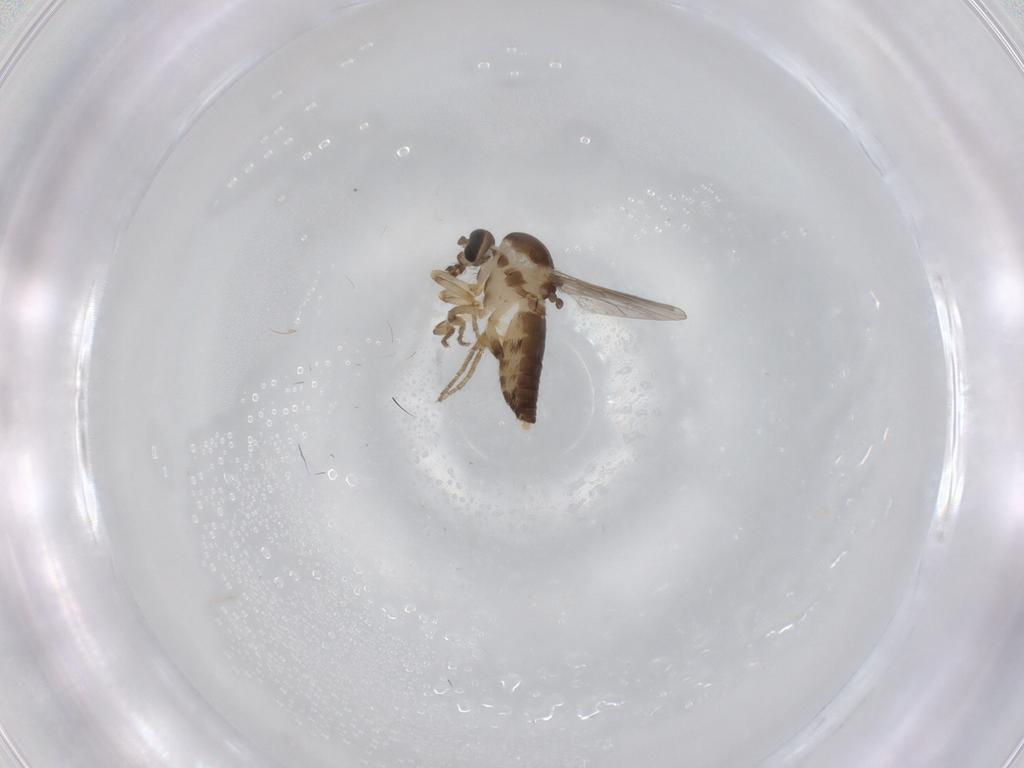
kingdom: Animalia
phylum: Arthropoda
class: Insecta
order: Diptera
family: Ceratopogonidae
